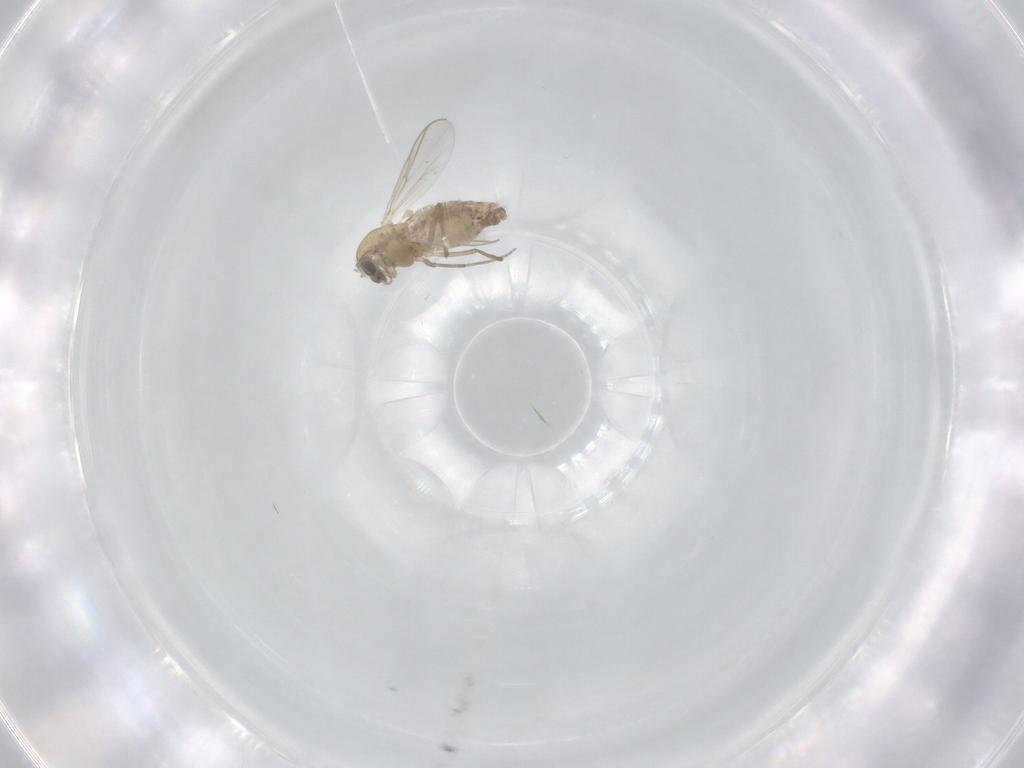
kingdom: Animalia
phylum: Arthropoda
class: Insecta
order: Diptera
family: Chironomidae
